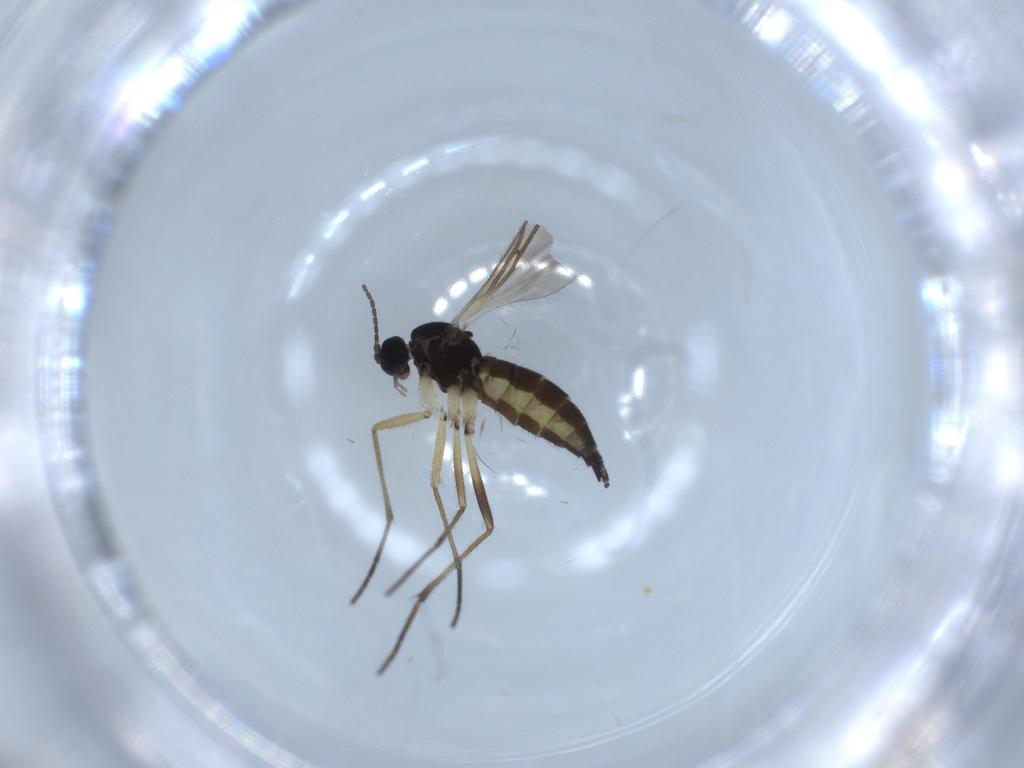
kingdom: Animalia
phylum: Arthropoda
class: Insecta
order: Diptera
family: Sciaridae
